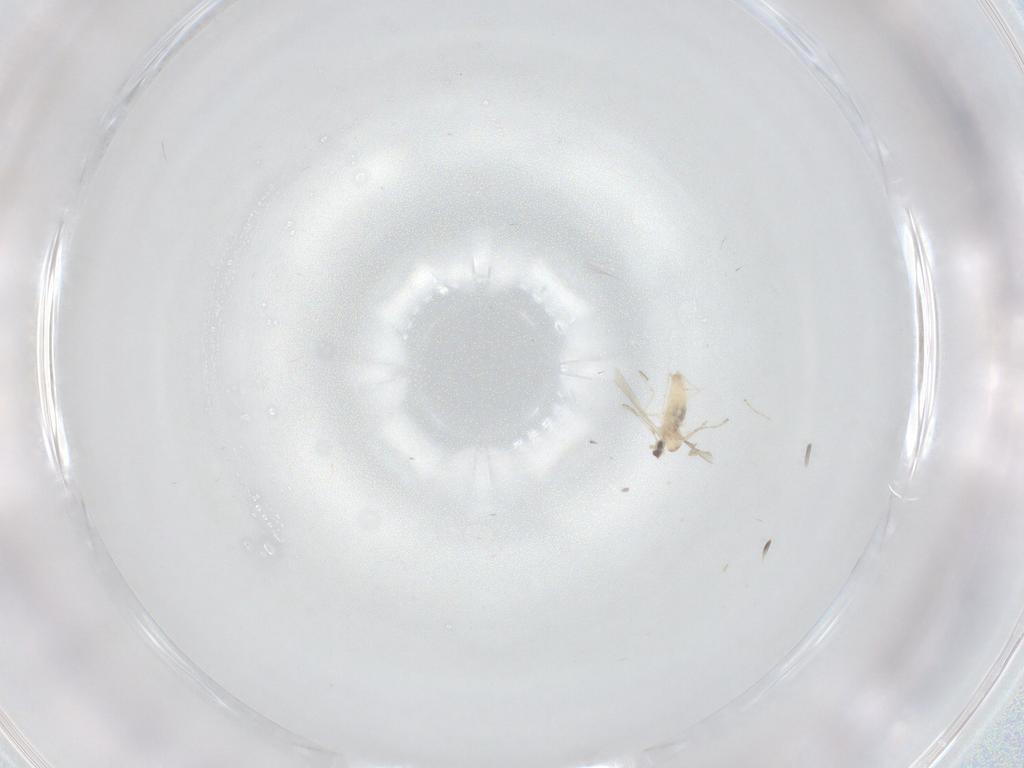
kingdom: Animalia
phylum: Arthropoda
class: Insecta
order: Diptera
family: Cecidomyiidae
